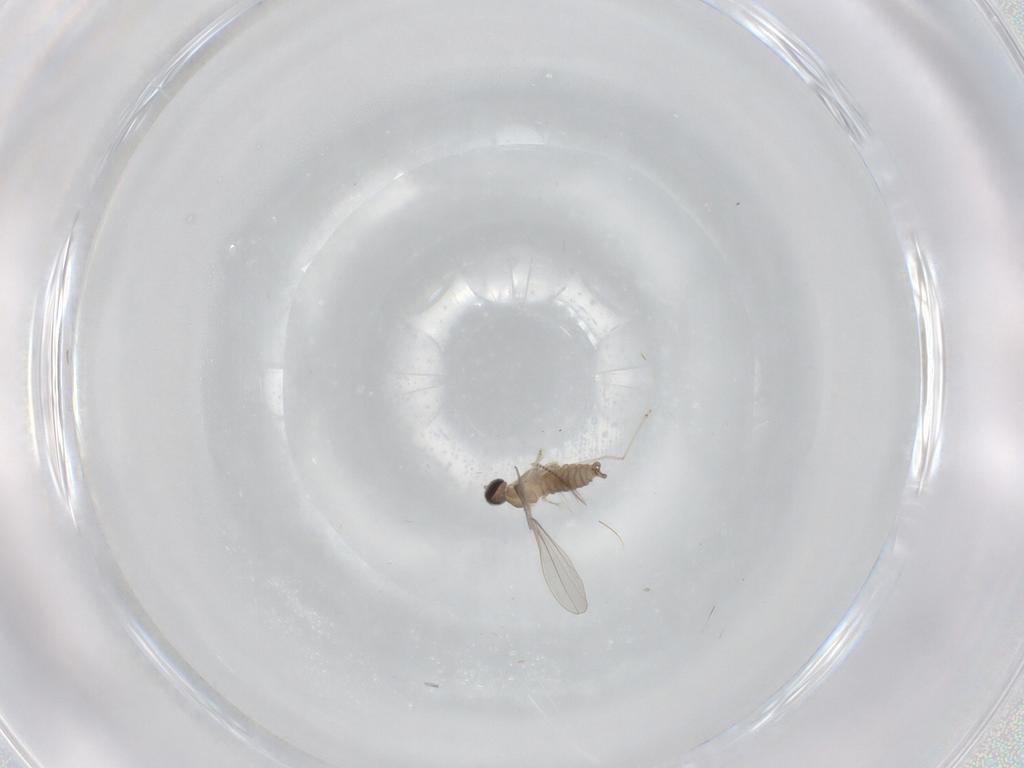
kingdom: Animalia
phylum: Arthropoda
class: Insecta
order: Diptera
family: Chironomidae
